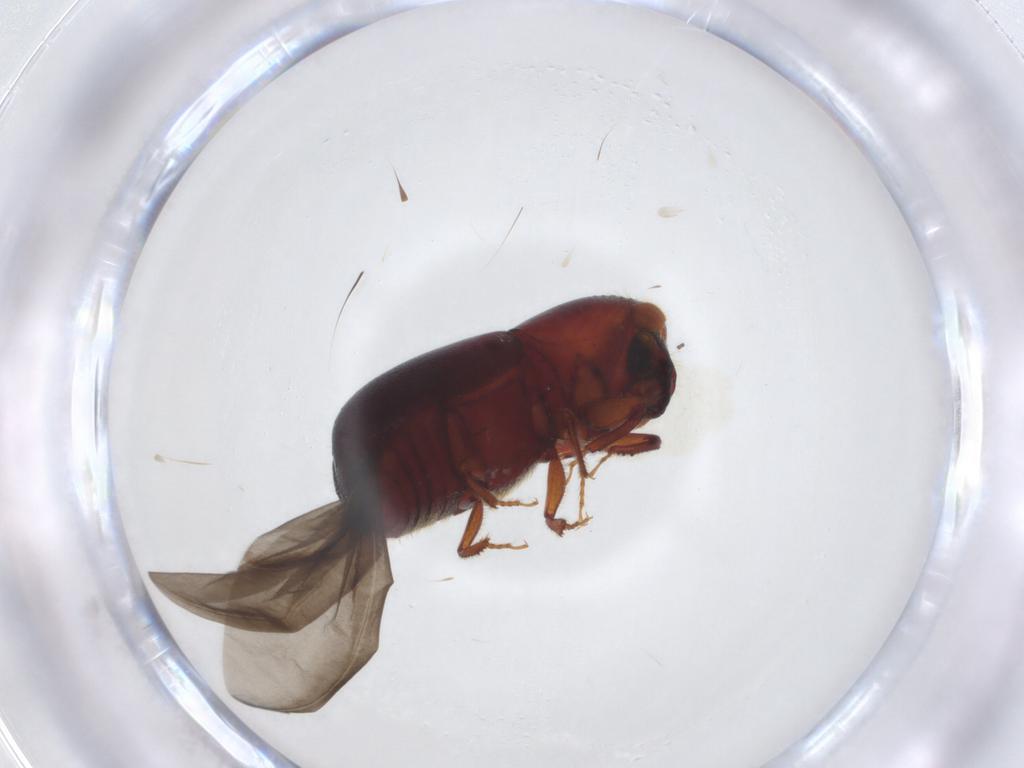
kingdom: Animalia
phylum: Arthropoda
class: Insecta
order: Coleoptera
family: Curculionidae
